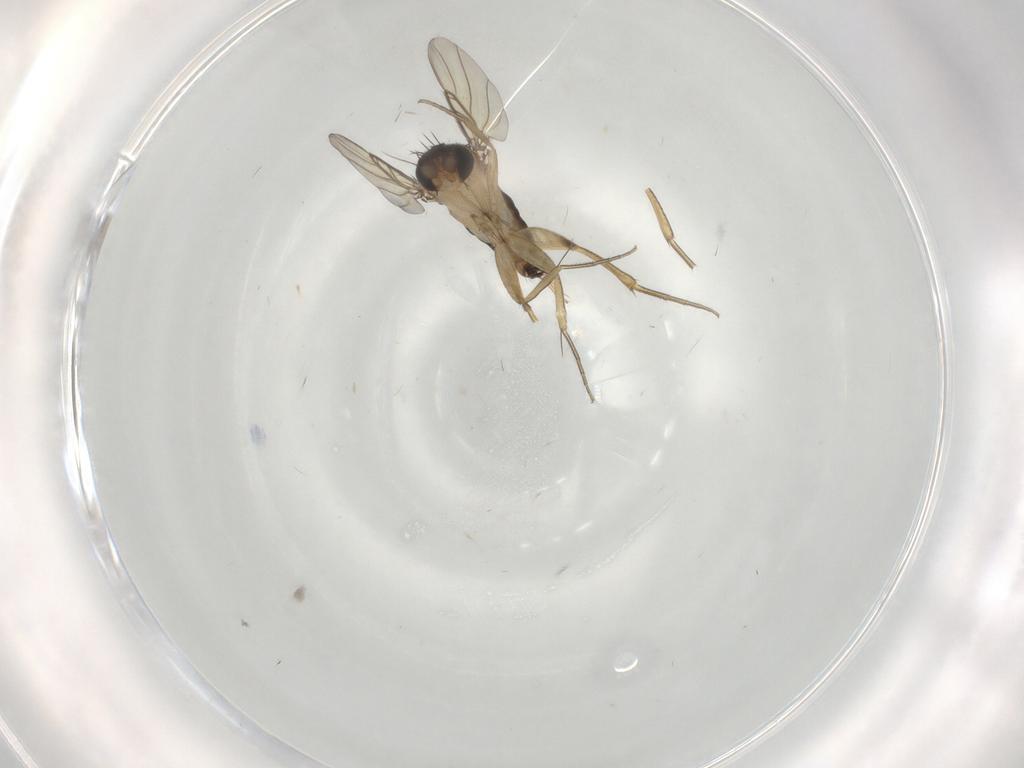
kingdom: Animalia
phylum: Arthropoda
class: Insecta
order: Diptera
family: Phoridae
